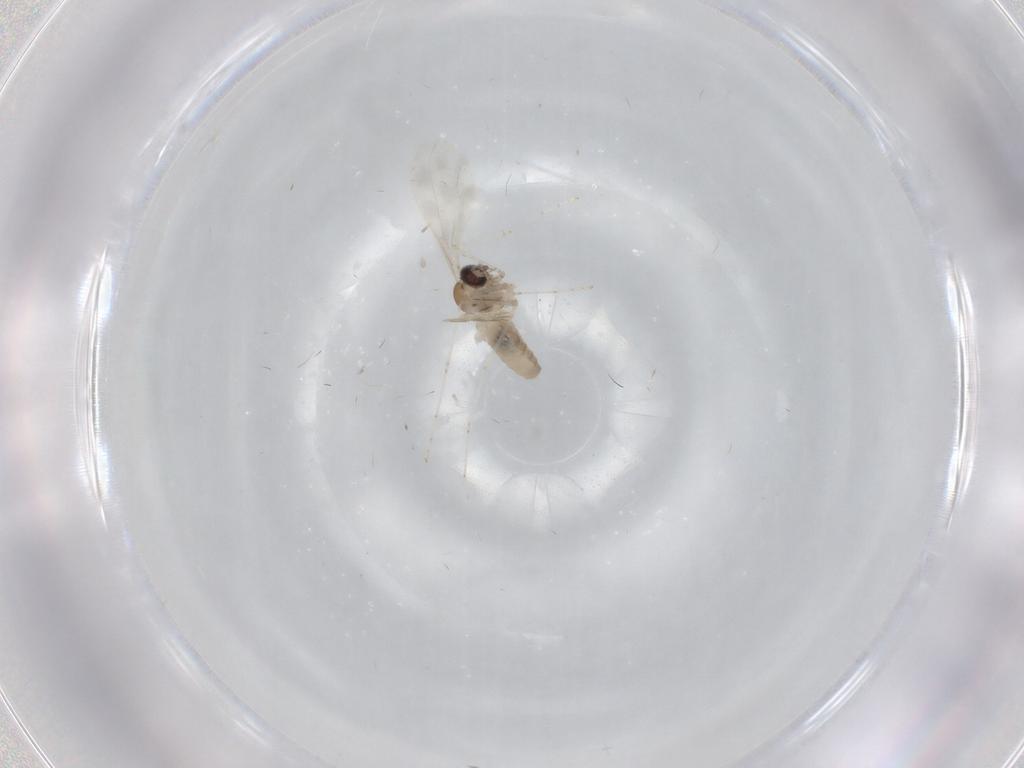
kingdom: Animalia
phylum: Arthropoda
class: Insecta
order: Diptera
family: Cecidomyiidae
